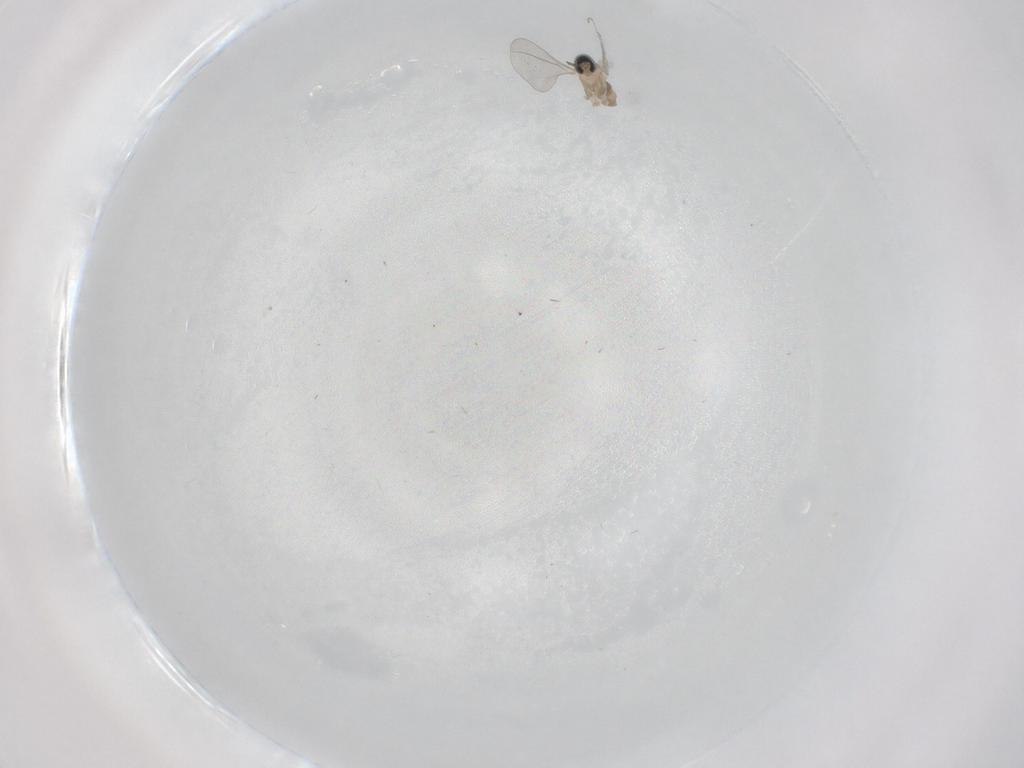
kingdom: Animalia
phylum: Arthropoda
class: Insecta
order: Diptera
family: Cecidomyiidae
